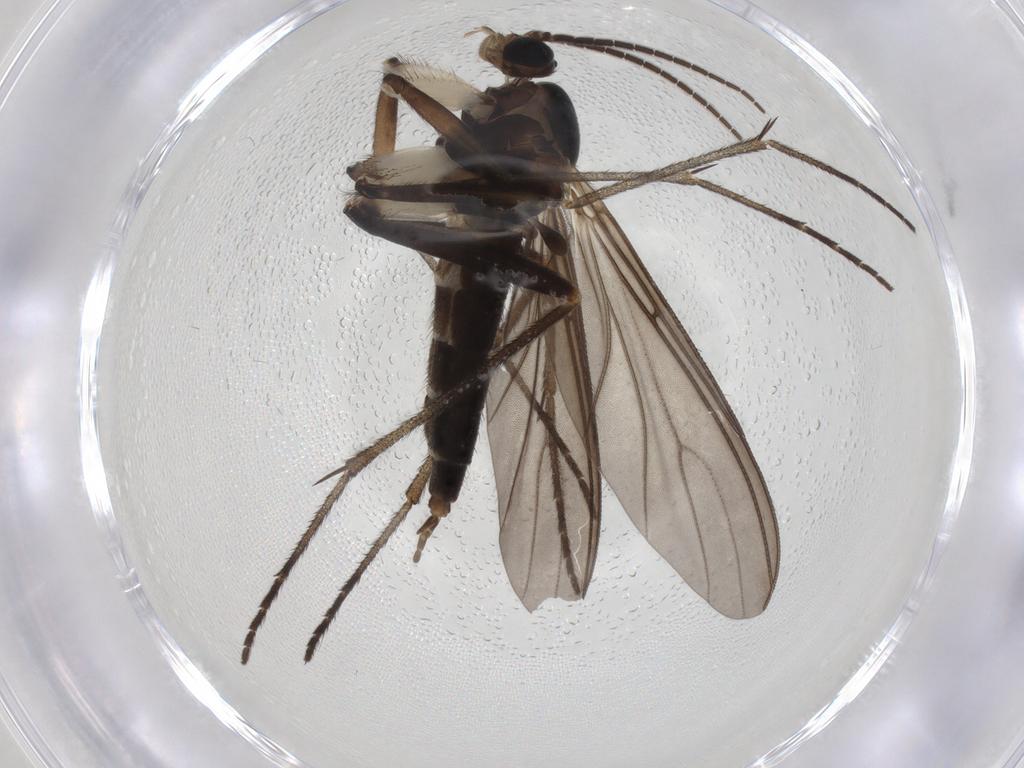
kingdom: Animalia
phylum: Arthropoda
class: Insecta
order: Diptera
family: Sciaridae
